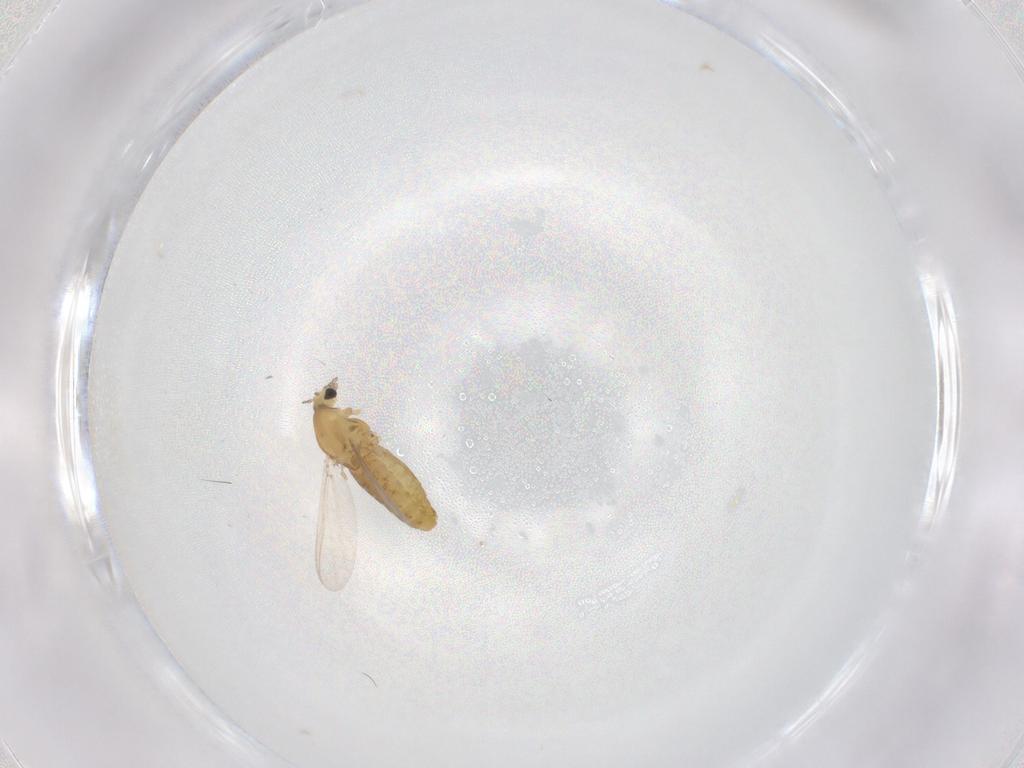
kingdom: Animalia
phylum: Arthropoda
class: Insecta
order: Diptera
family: Chironomidae
